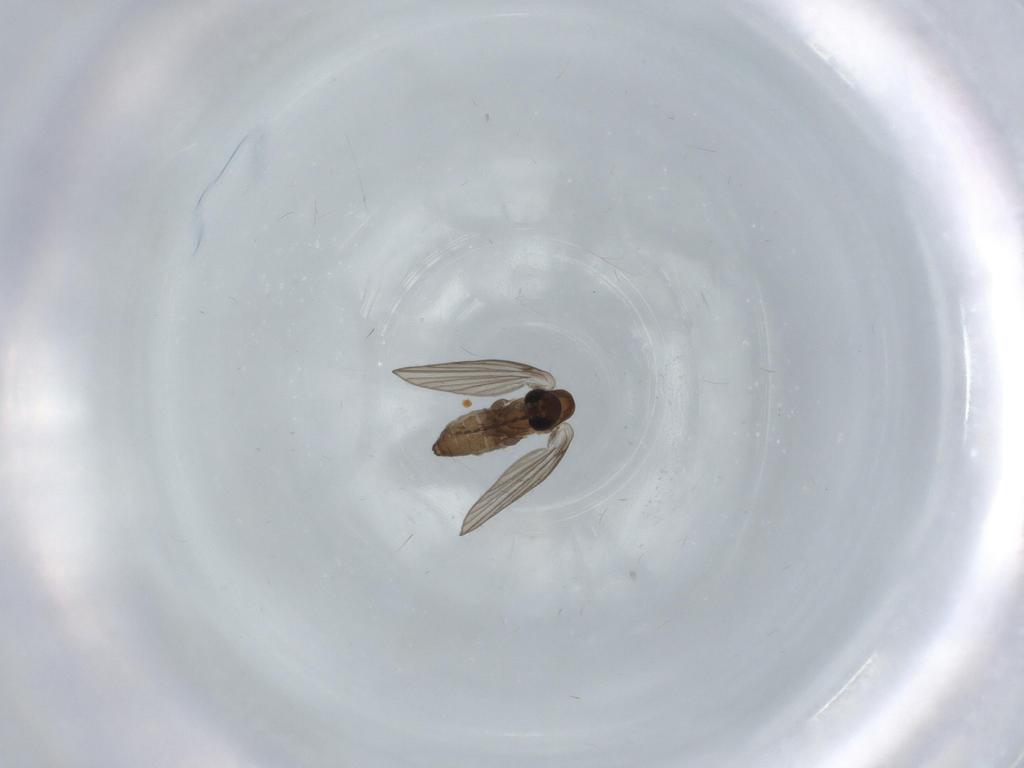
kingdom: Animalia
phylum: Arthropoda
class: Insecta
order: Diptera
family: Psychodidae
